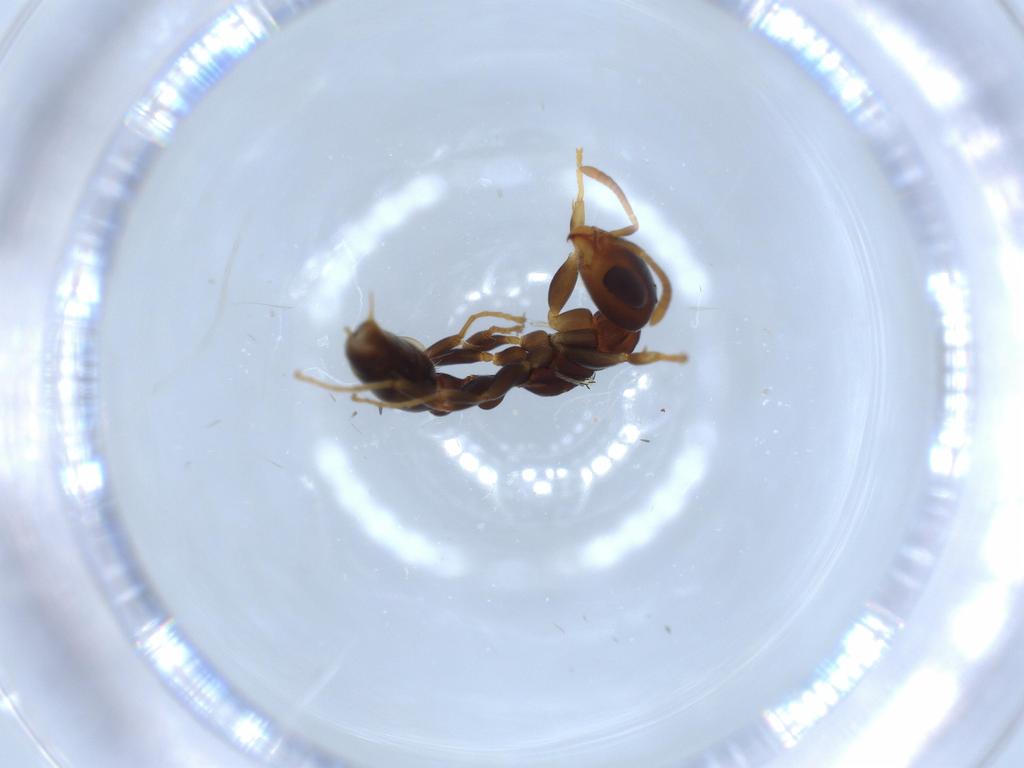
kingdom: Animalia
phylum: Arthropoda
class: Insecta
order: Hymenoptera
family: Formicidae
